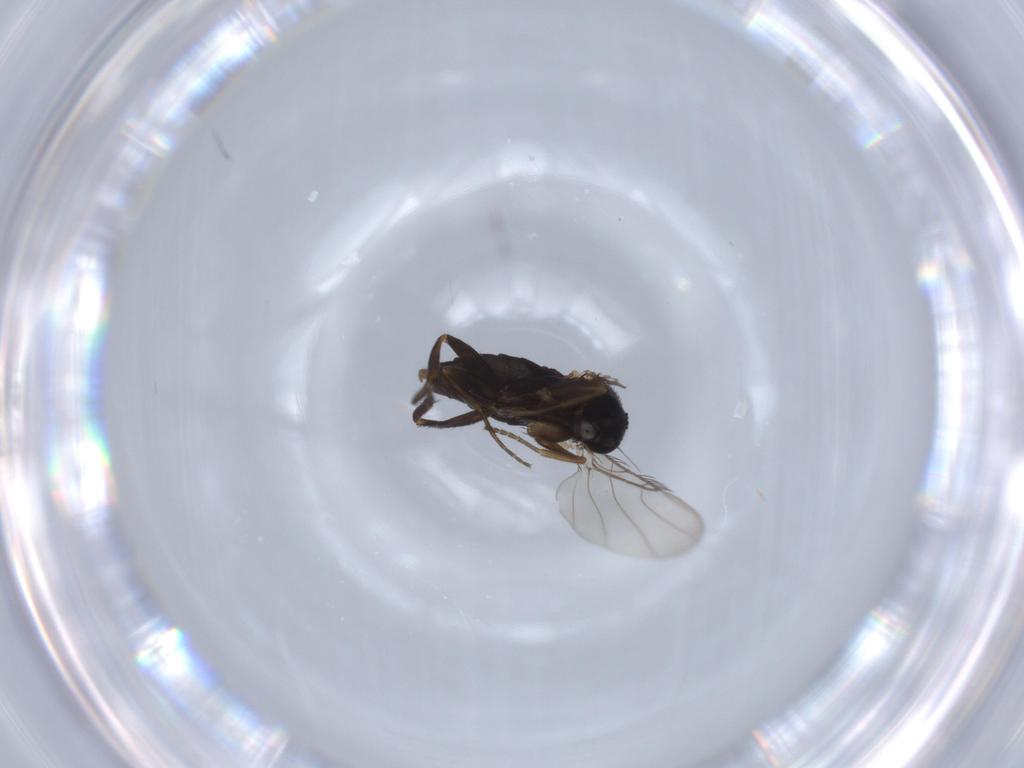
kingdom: Animalia
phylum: Arthropoda
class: Insecta
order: Diptera
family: Phoridae
